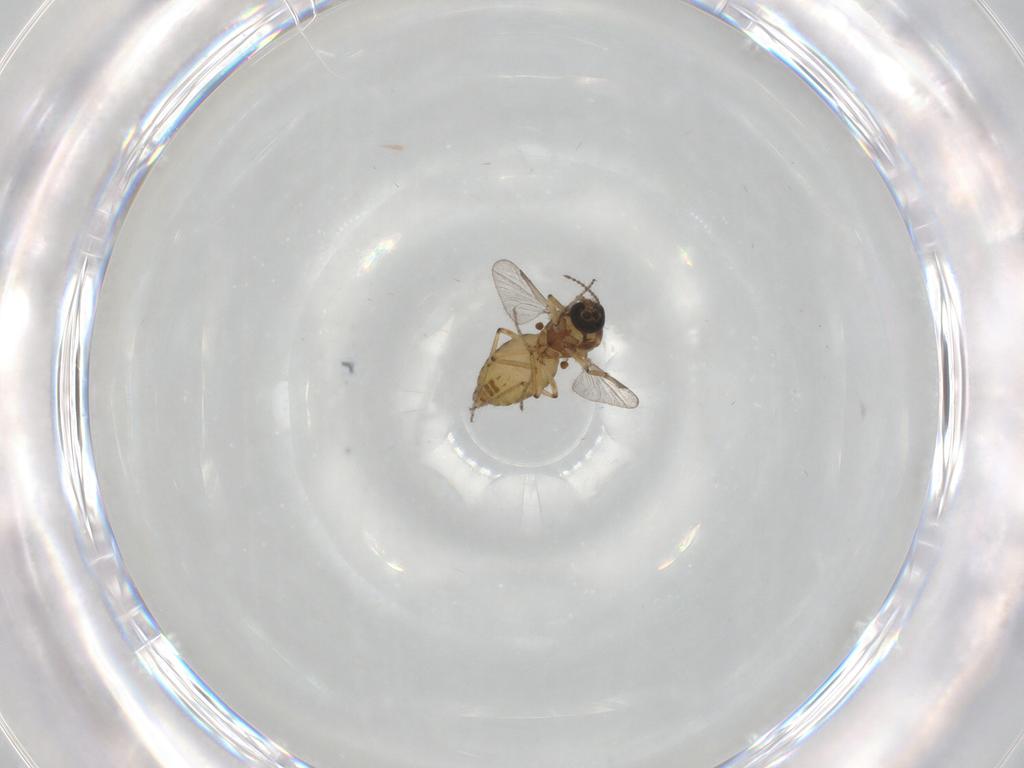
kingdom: Animalia
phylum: Arthropoda
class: Insecta
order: Diptera
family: Ceratopogonidae
